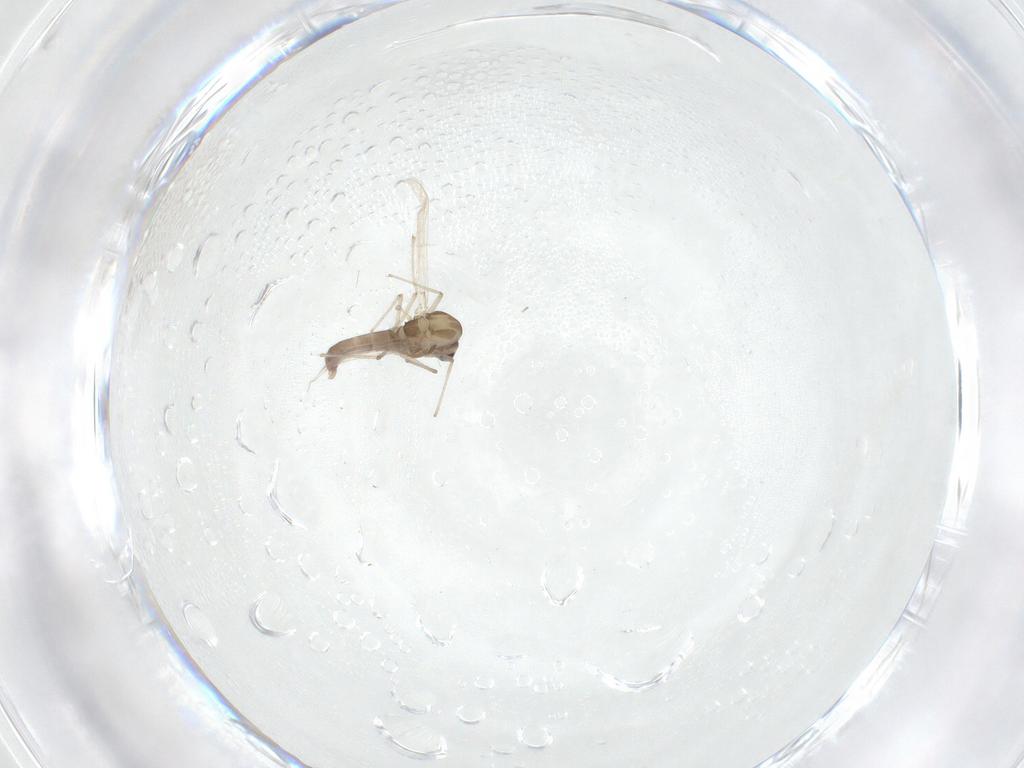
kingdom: Animalia
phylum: Arthropoda
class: Insecta
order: Diptera
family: Chironomidae
